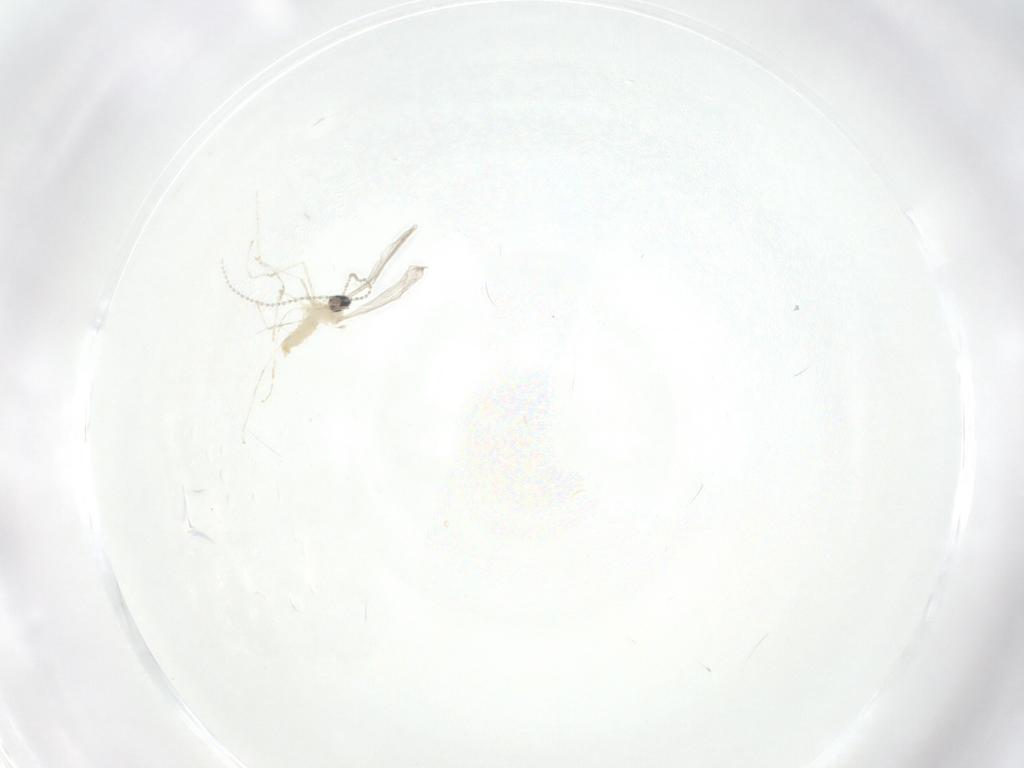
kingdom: Animalia
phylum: Arthropoda
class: Insecta
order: Diptera
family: Cecidomyiidae
